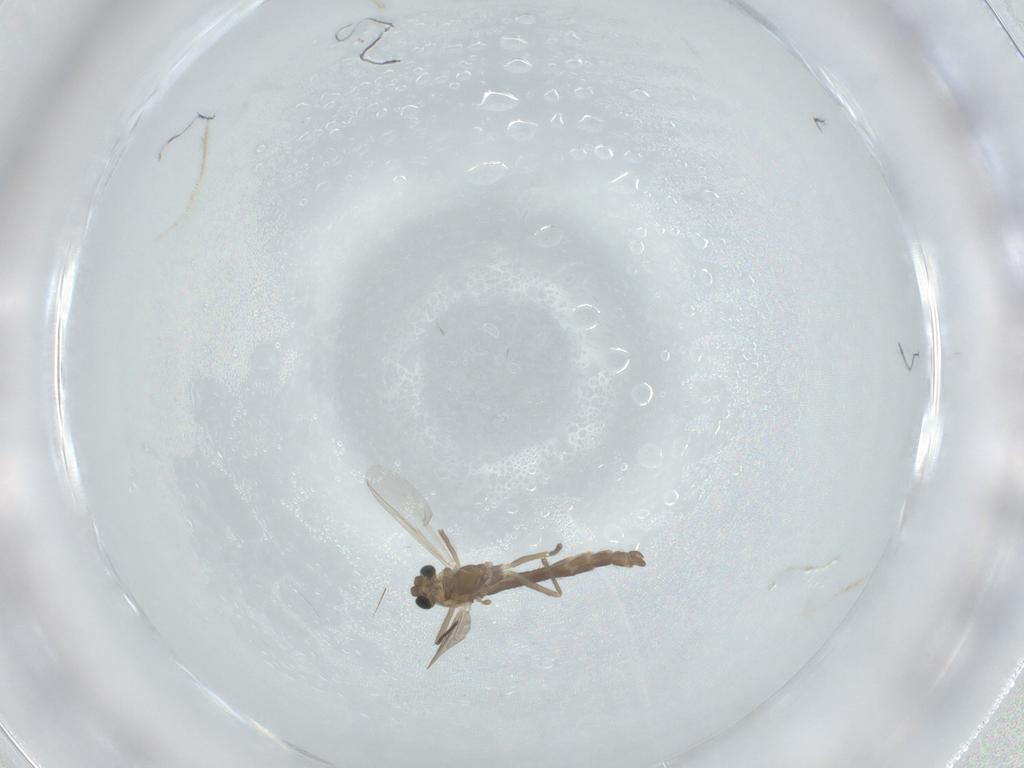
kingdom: Animalia
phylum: Arthropoda
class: Insecta
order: Diptera
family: Chironomidae
